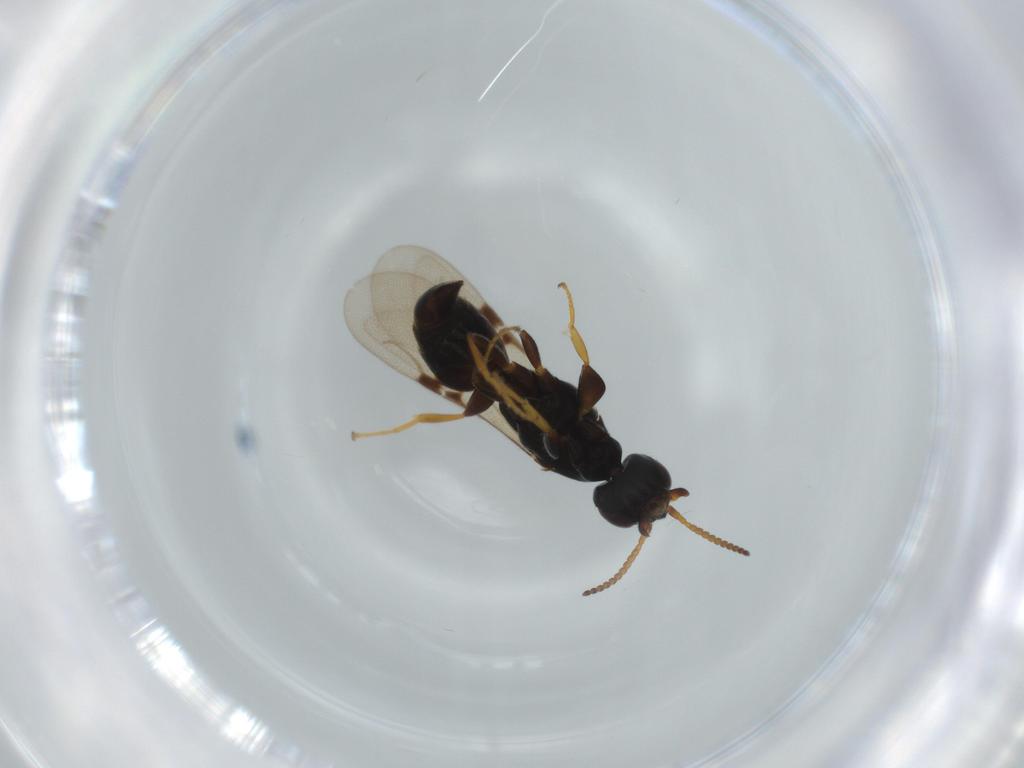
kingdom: Animalia
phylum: Arthropoda
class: Insecta
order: Hymenoptera
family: Bethylidae
